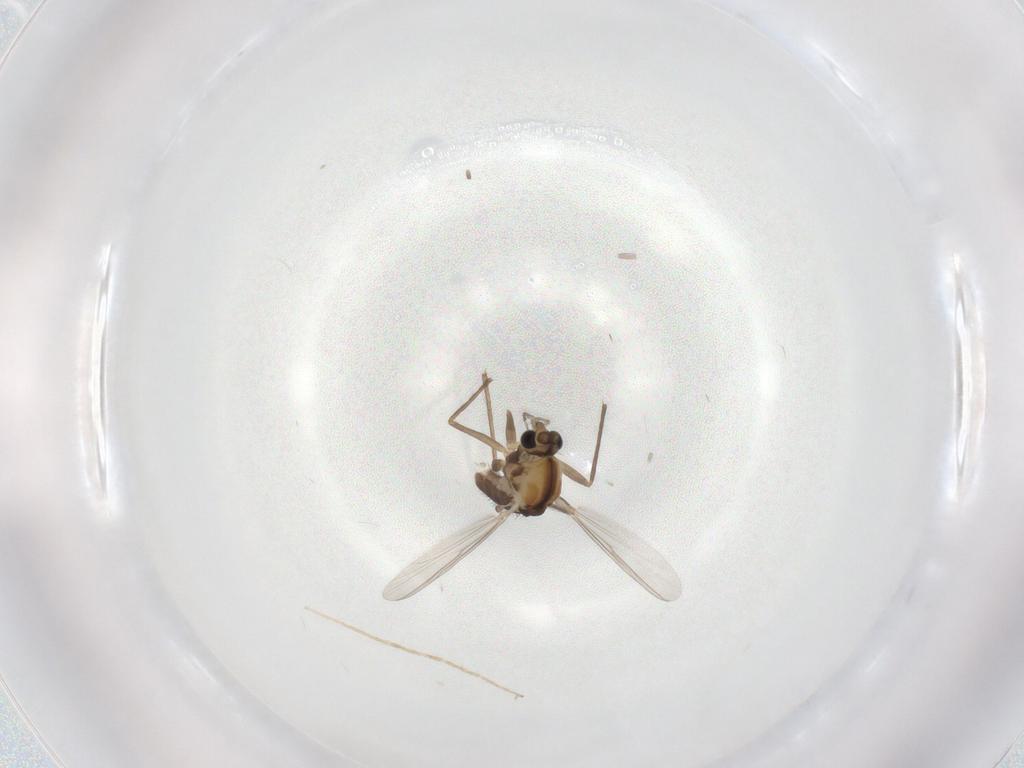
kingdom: Animalia
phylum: Arthropoda
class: Insecta
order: Diptera
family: Chironomidae
